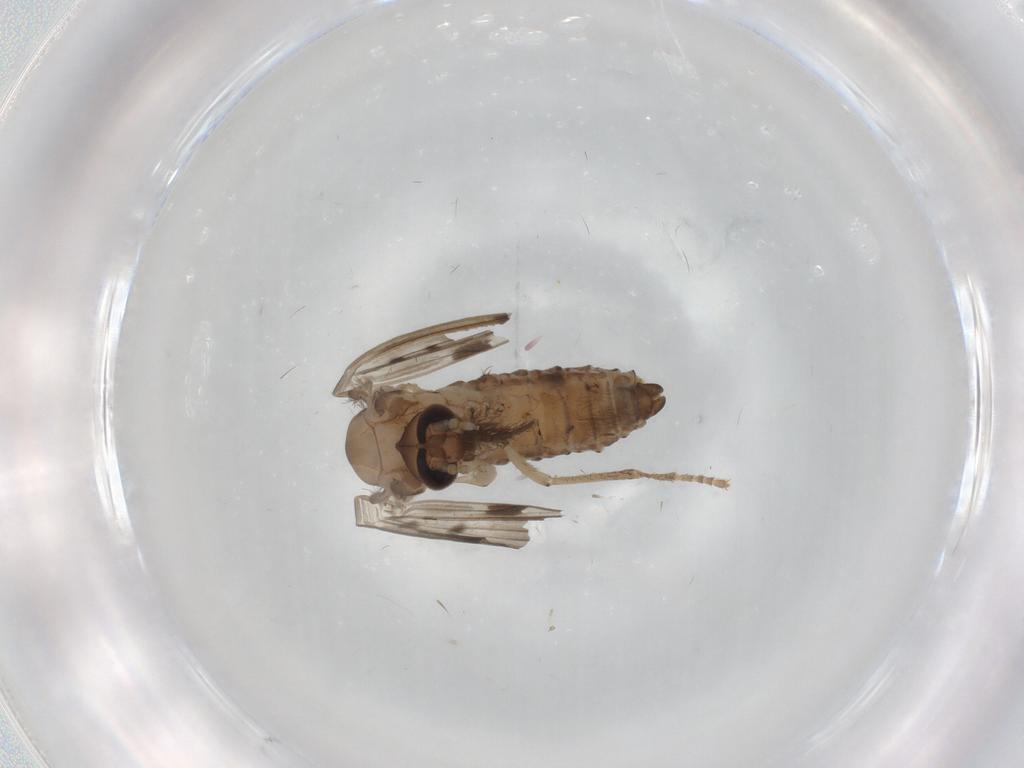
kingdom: Animalia
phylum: Arthropoda
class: Insecta
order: Diptera
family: Psychodidae
